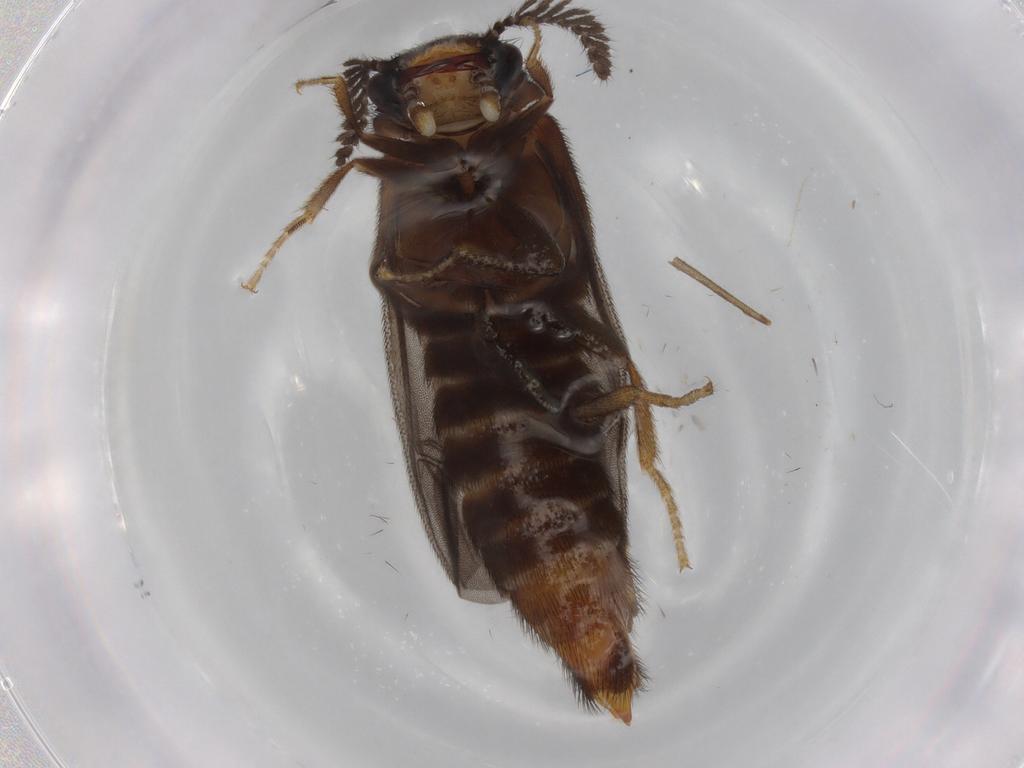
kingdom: Animalia
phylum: Arthropoda
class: Insecta
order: Coleoptera
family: Phengodidae
